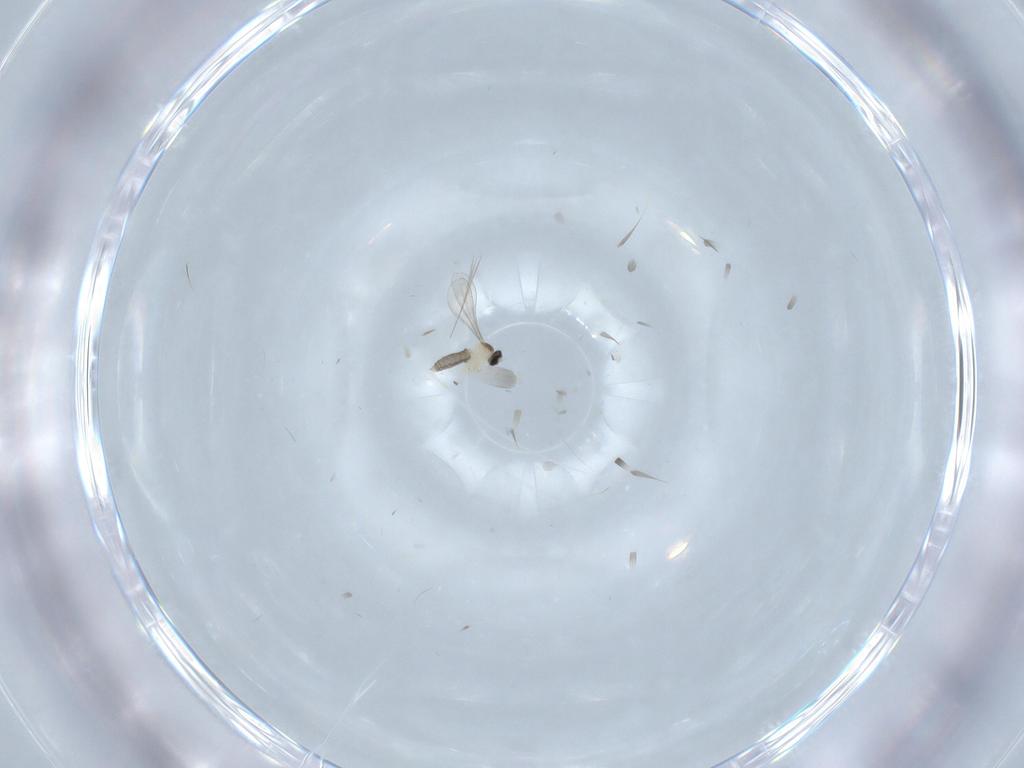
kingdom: Animalia
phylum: Arthropoda
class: Insecta
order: Diptera
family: Cecidomyiidae
